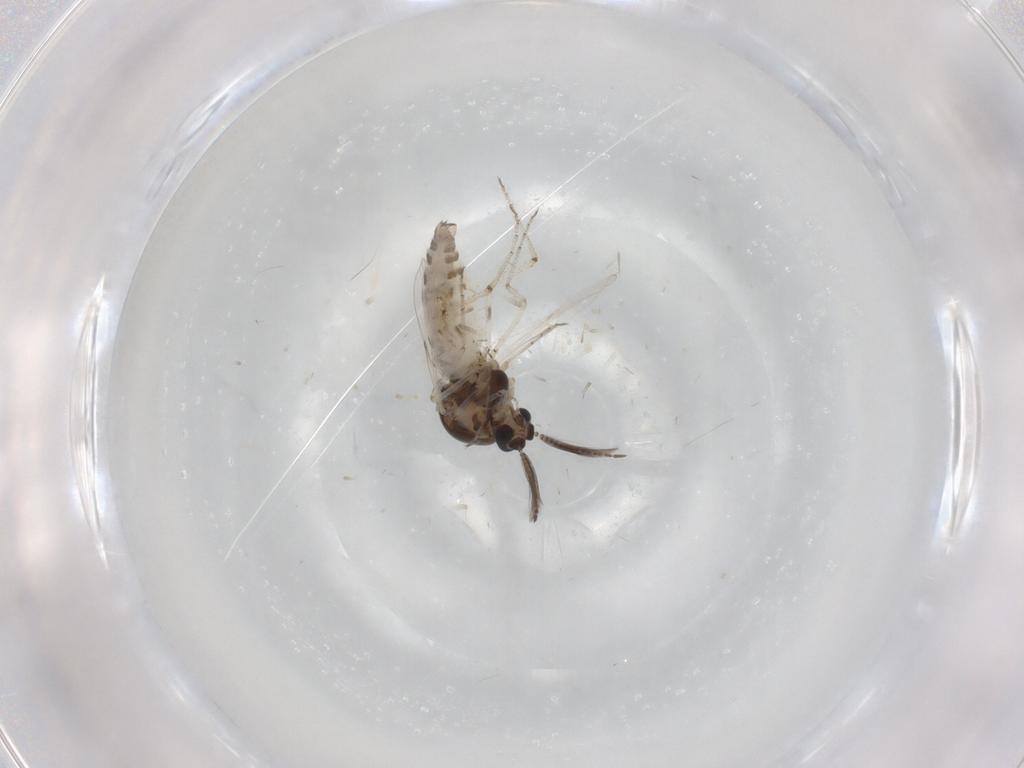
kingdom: Animalia
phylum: Arthropoda
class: Insecta
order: Diptera
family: Ceratopogonidae
